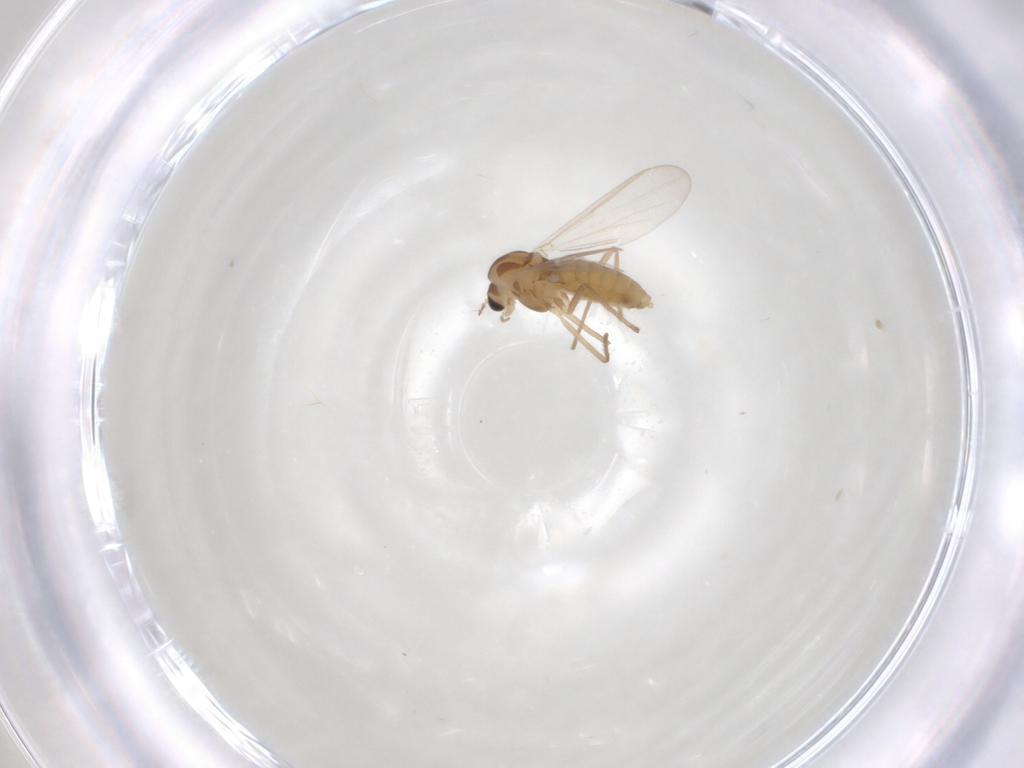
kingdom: Animalia
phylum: Arthropoda
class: Insecta
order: Diptera
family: Chironomidae
